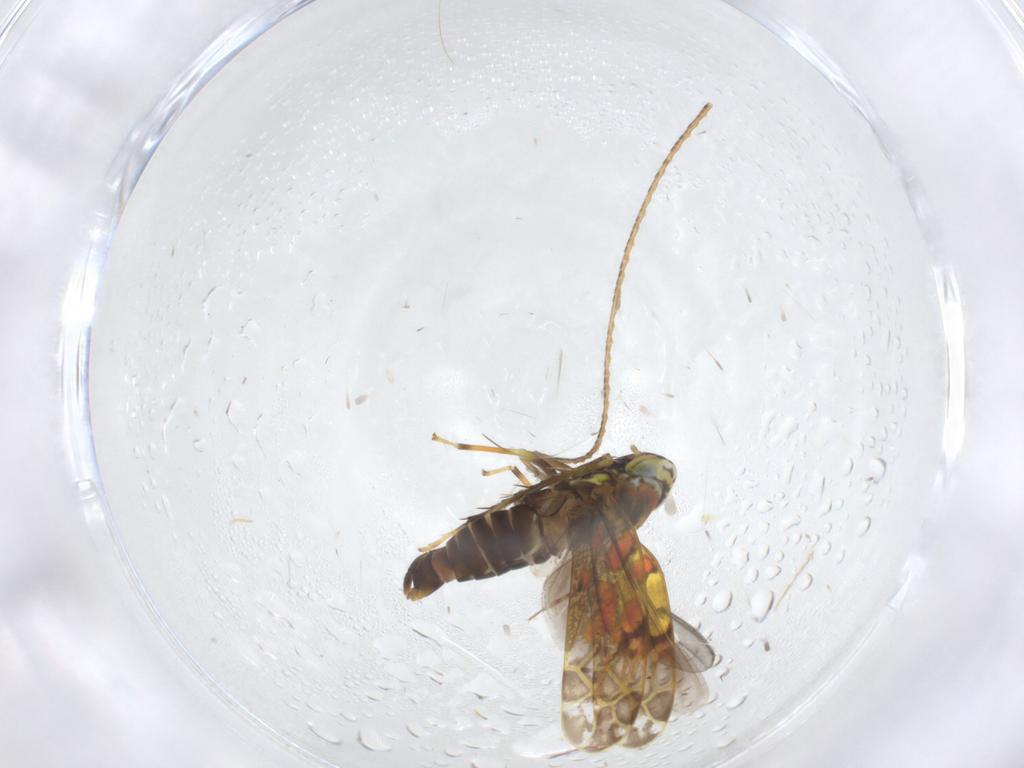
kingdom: Animalia
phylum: Arthropoda
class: Insecta
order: Hemiptera
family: Cicadellidae
